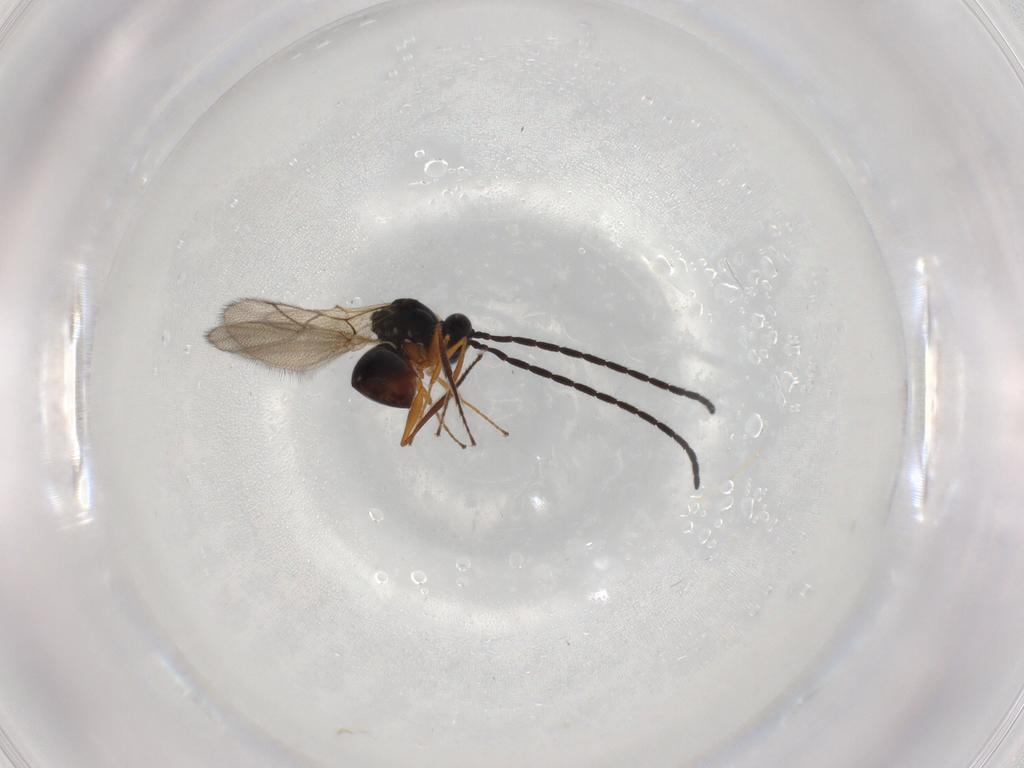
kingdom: Animalia
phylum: Arthropoda
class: Insecta
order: Hymenoptera
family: Figitidae
